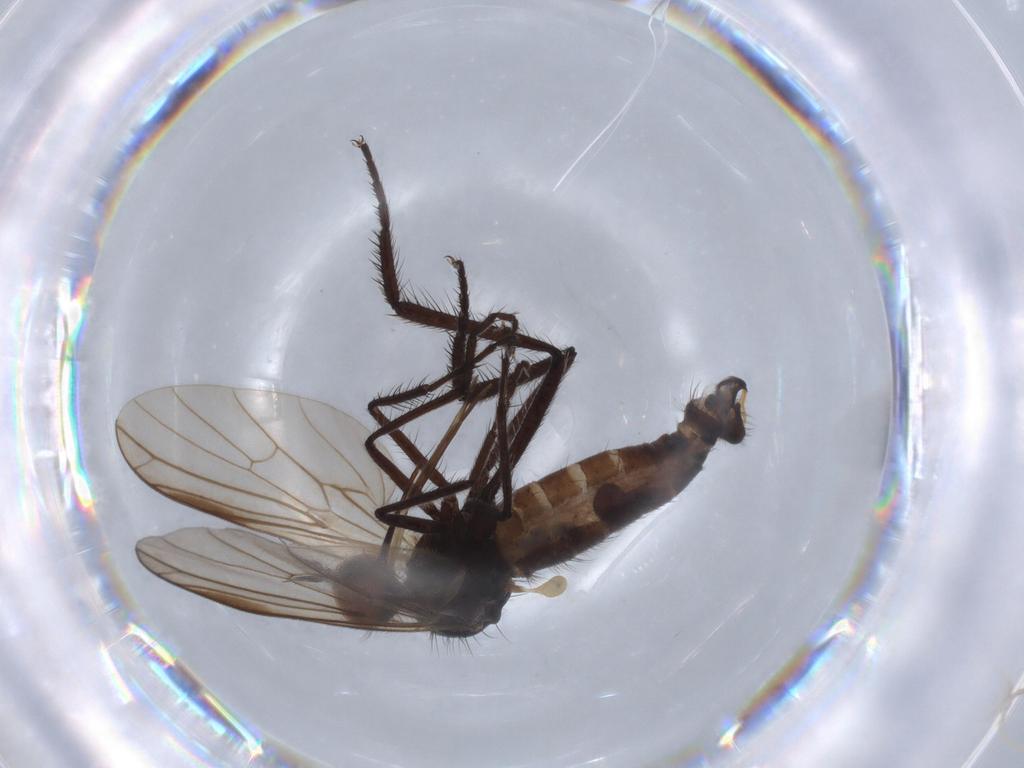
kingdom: Animalia
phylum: Arthropoda
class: Insecta
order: Diptera
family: Empididae
